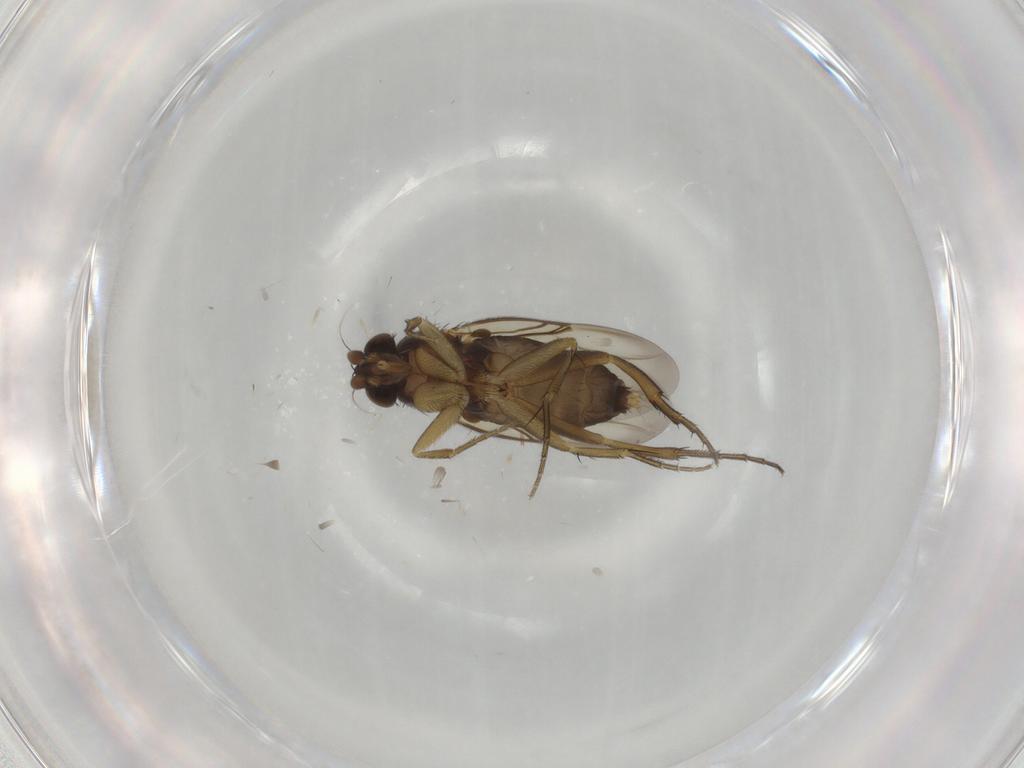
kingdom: Animalia
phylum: Arthropoda
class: Insecta
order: Diptera
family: Phoridae
